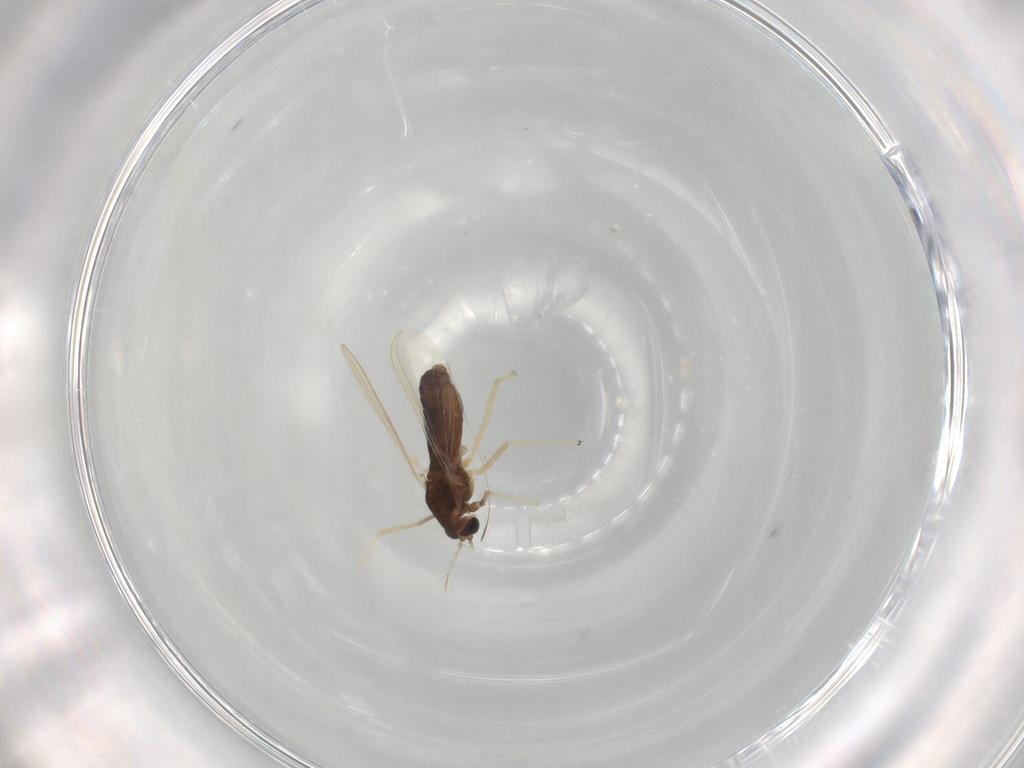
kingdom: Animalia
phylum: Arthropoda
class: Insecta
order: Diptera
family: Chironomidae
